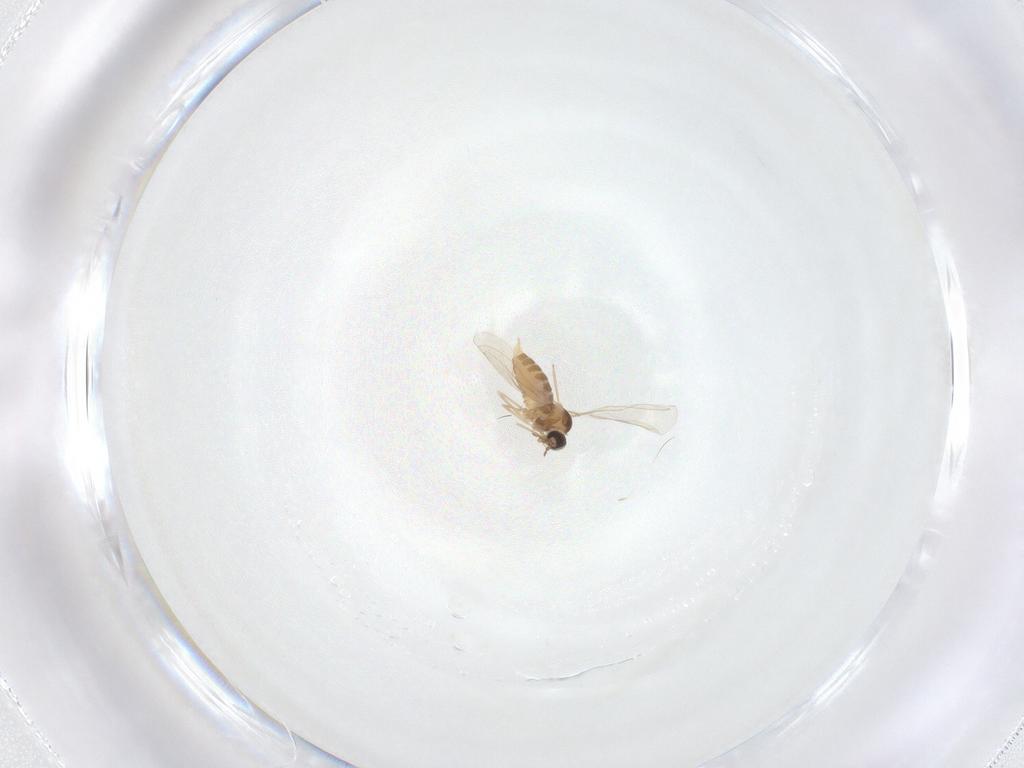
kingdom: Animalia
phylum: Arthropoda
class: Insecta
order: Diptera
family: Cecidomyiidae
